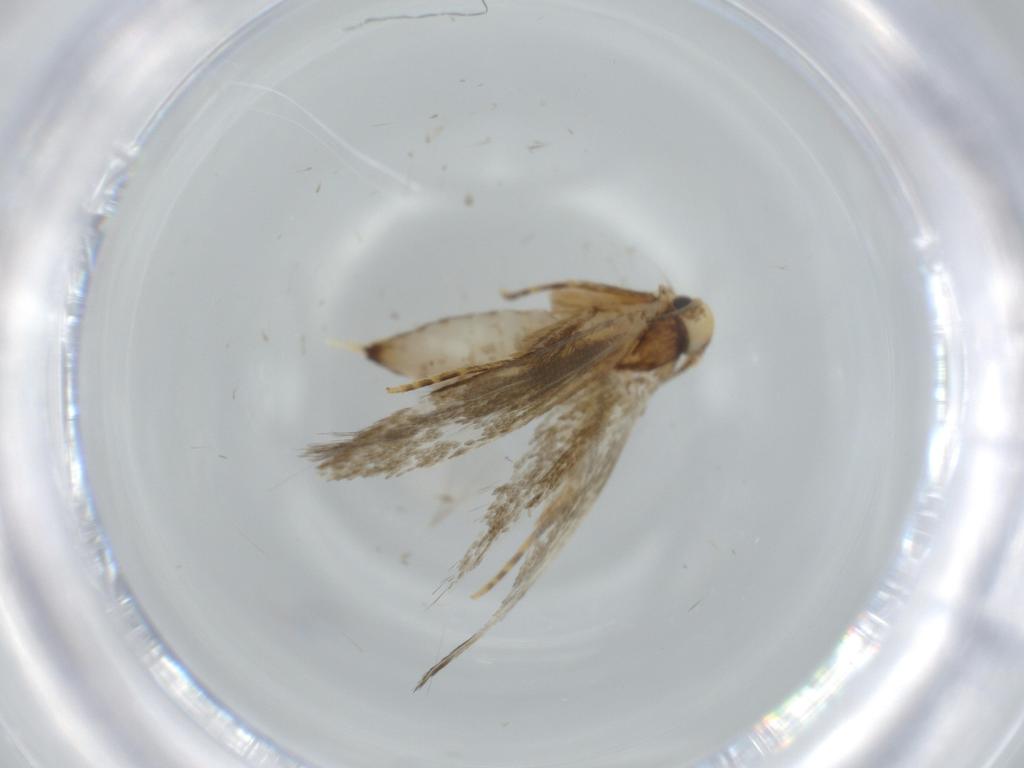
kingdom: Animalia
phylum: Arthropoda
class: Insecta
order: Lepidoptera
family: Tineidae
